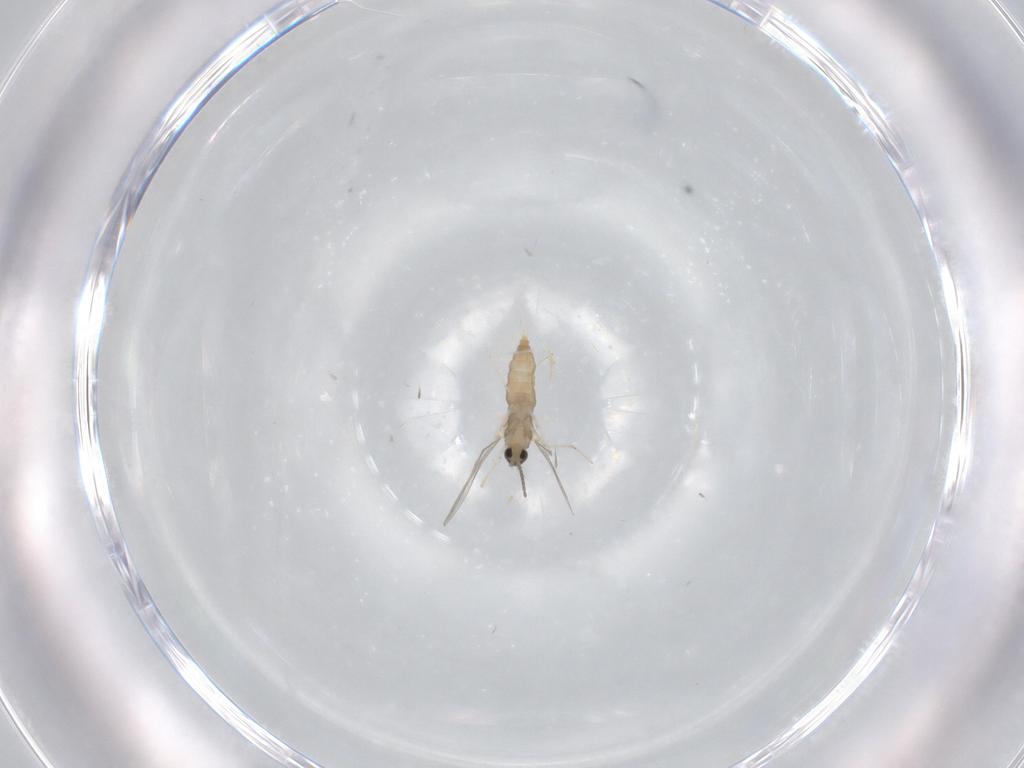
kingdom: Animalia
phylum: Arthropoda
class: Insecta
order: Diptera
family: Cecidomyiidae
